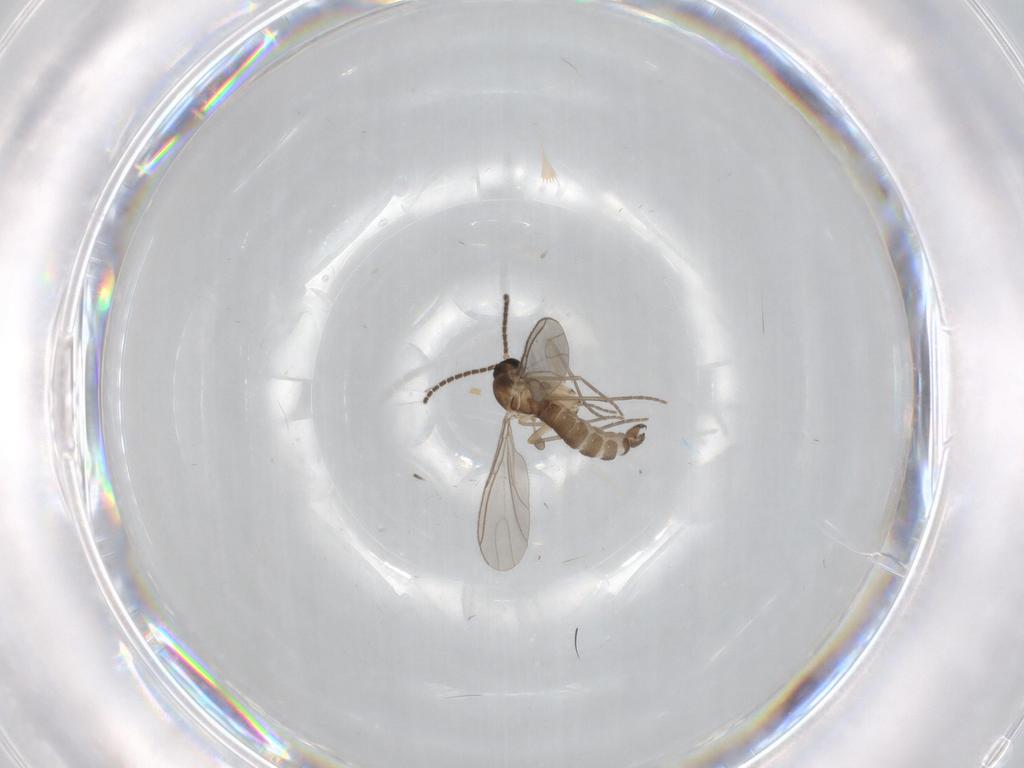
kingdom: Animalia
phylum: Arthropoda
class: Insecta
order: Diptera
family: Sciaridae
